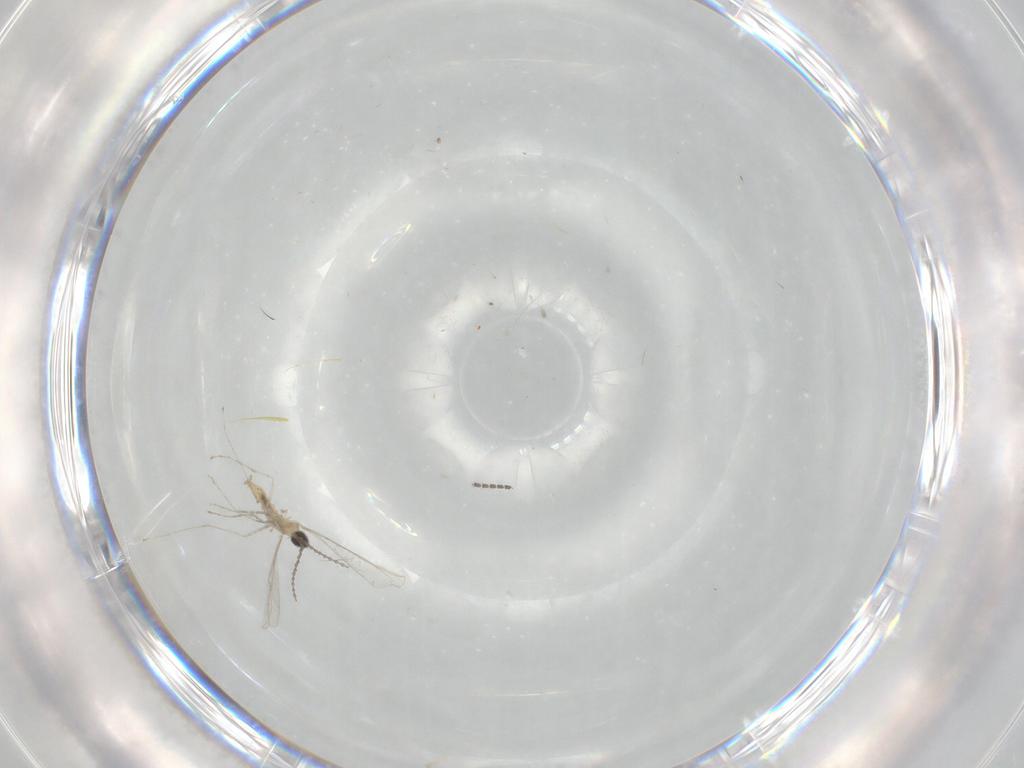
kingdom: Animalia
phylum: Arthropoda
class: Insecta
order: Diptera
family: Cecidomyiidae
